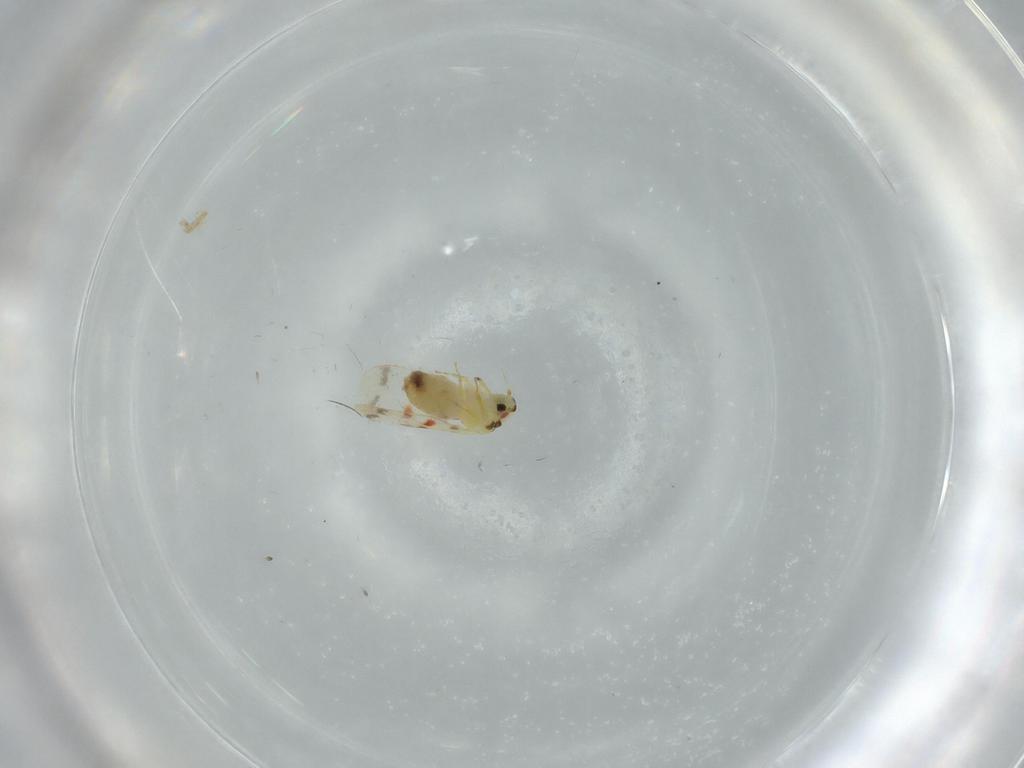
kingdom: Animalia
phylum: Arthropoda
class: Insecta
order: Hemiptera
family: Aleyrodidae
